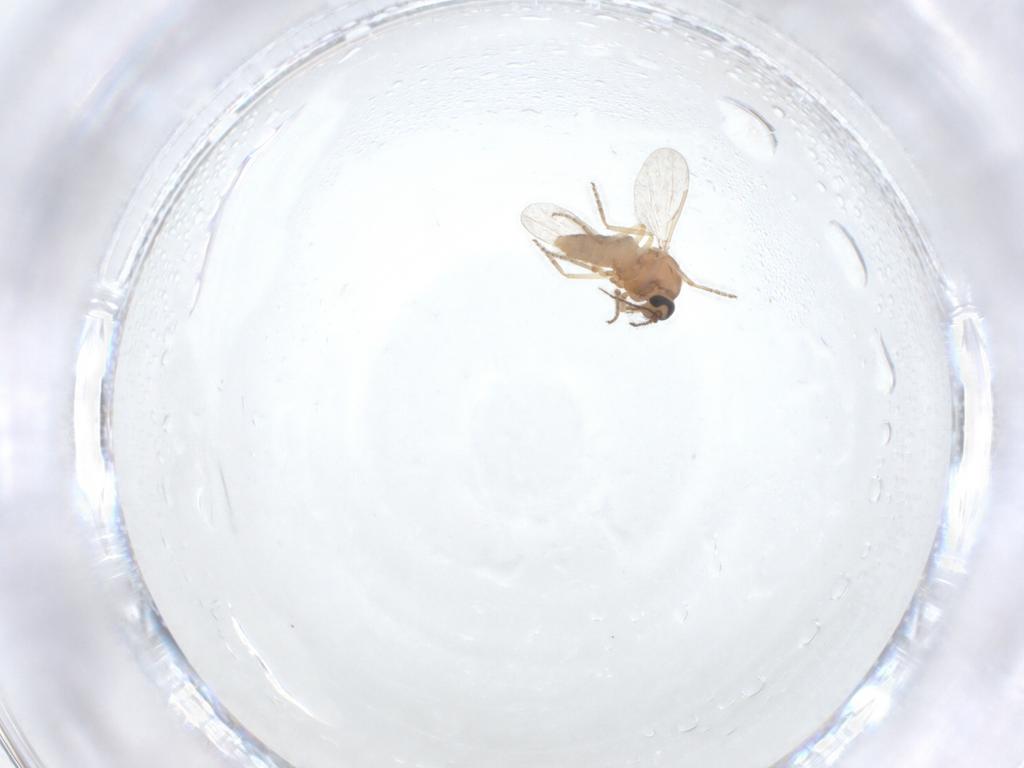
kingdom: Animalia
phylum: Arthropoda
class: Insecta
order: Diptera
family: Ceratopogonidae
